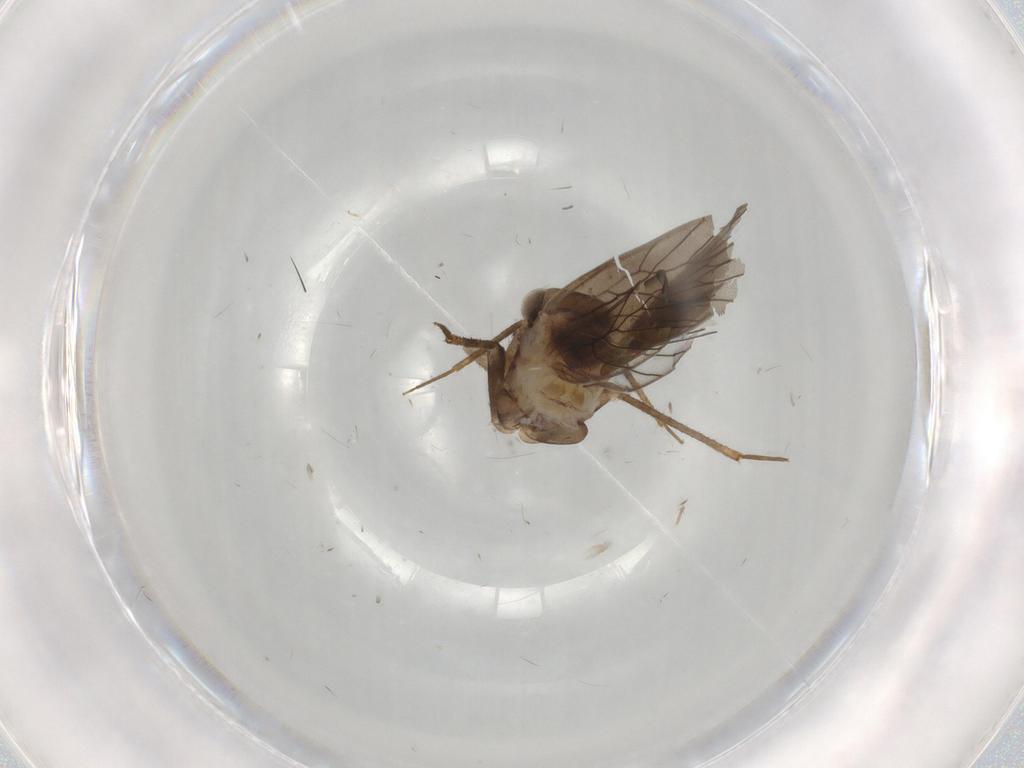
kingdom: Animalia
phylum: Arthropoda
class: Insecta
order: Psocodea
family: Lepidopsocidae
